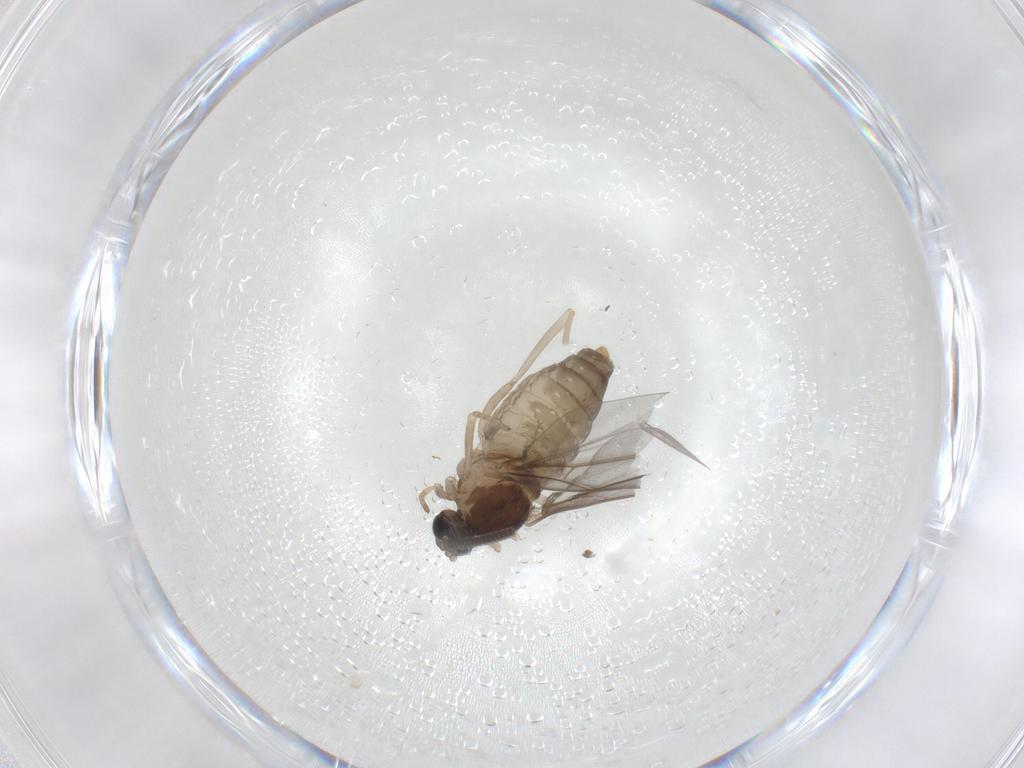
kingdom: Animalia
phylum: Arthropoda
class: Insecta
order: Diptera
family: Cecidomyiidae
